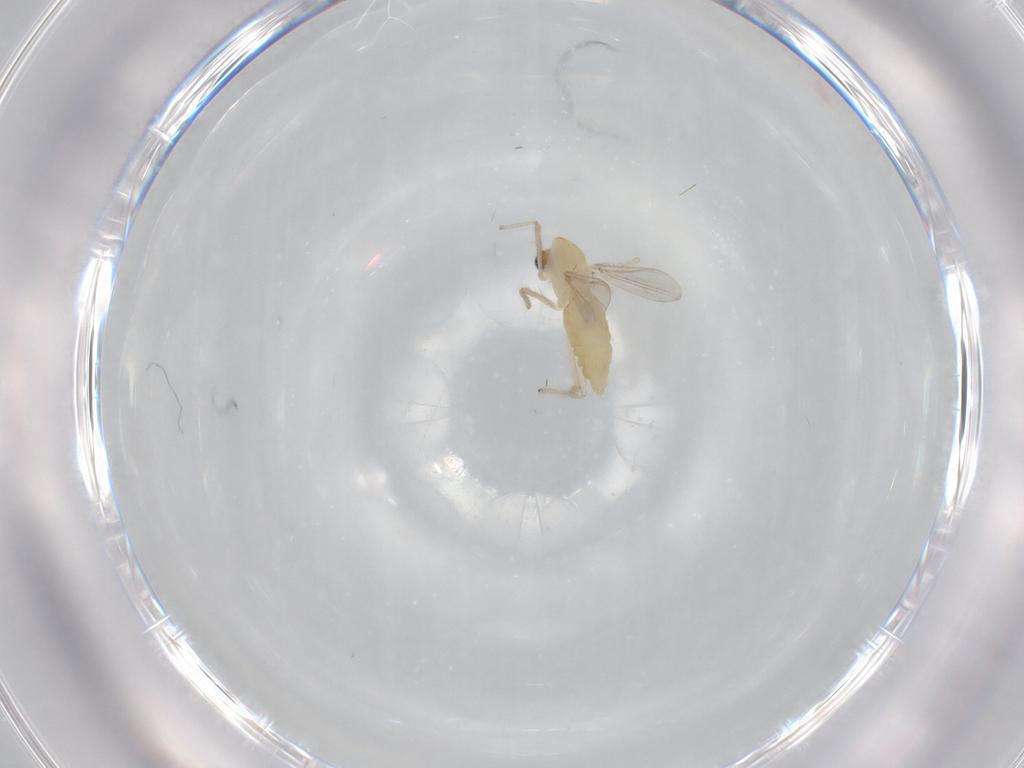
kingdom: Animalia
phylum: Arthropoda
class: Insecta
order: Diptera
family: Chironomidae
